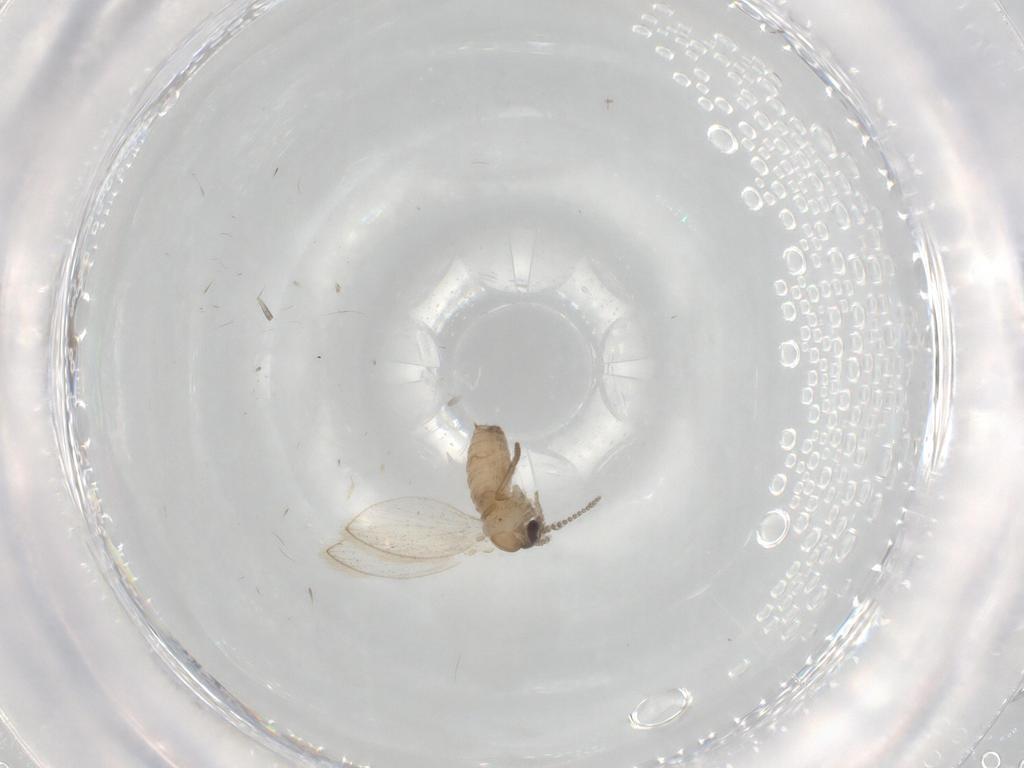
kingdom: Animalia
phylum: Arthropoda
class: Insecta
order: Diptera
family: Psychodidae
